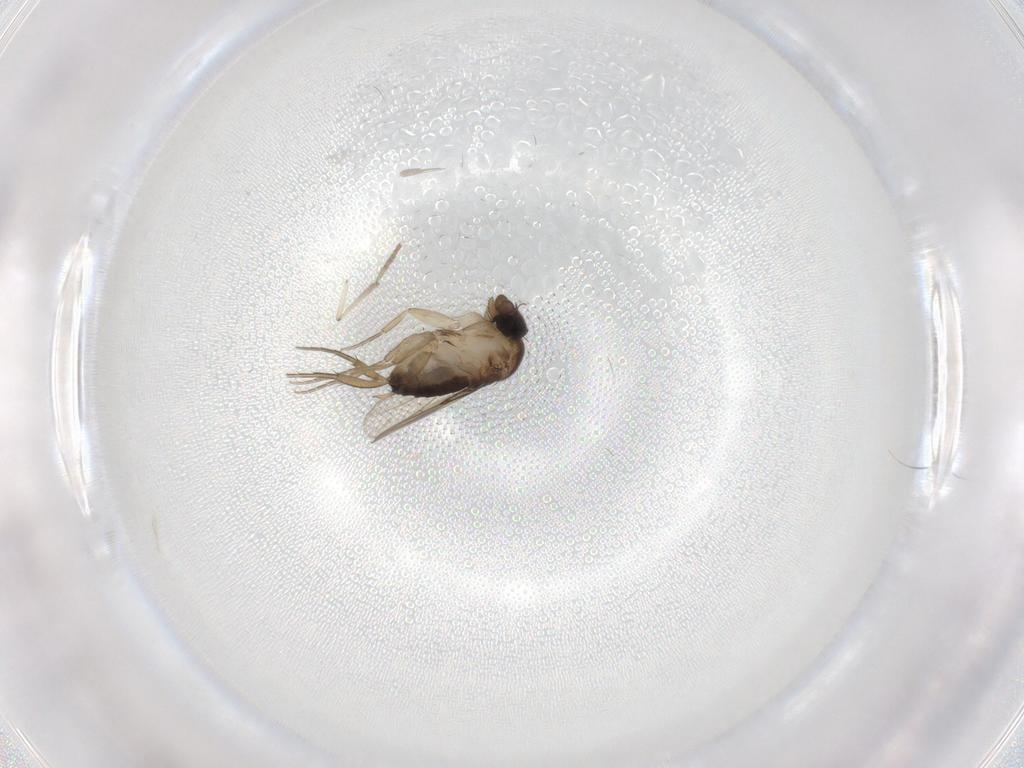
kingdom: Animalia
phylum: Arthropoda
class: Insecta
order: Diptera
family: Phoridae
